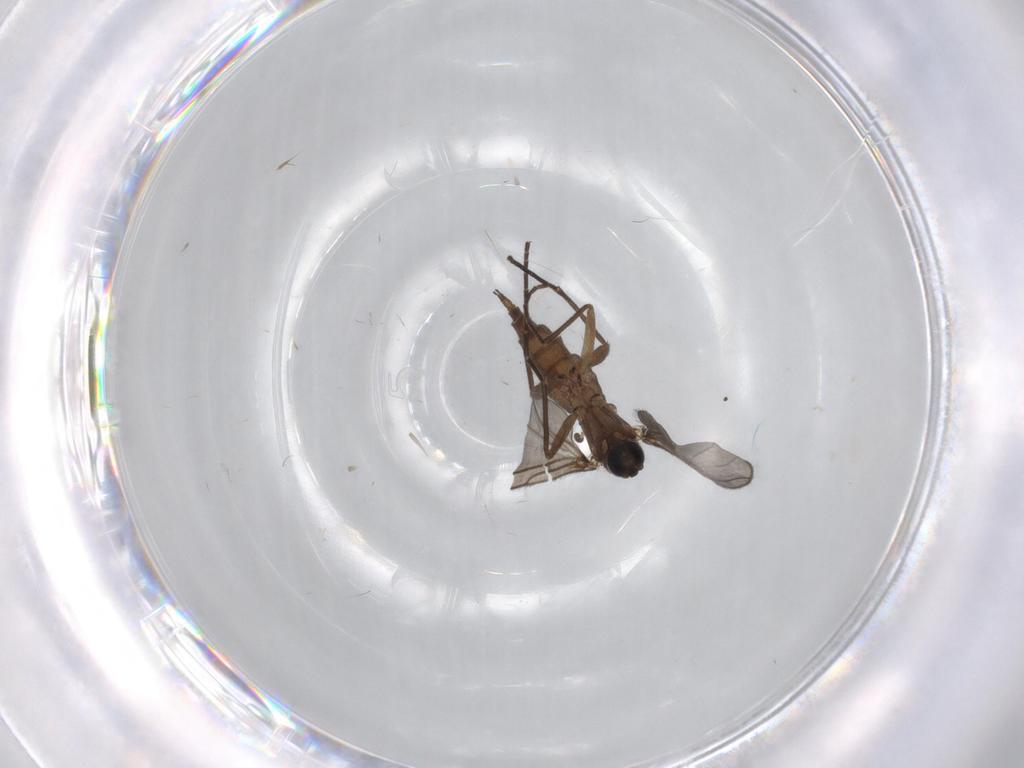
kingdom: Animalia
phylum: Arthropoda
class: Insecta
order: Diptera
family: Sciaridae
